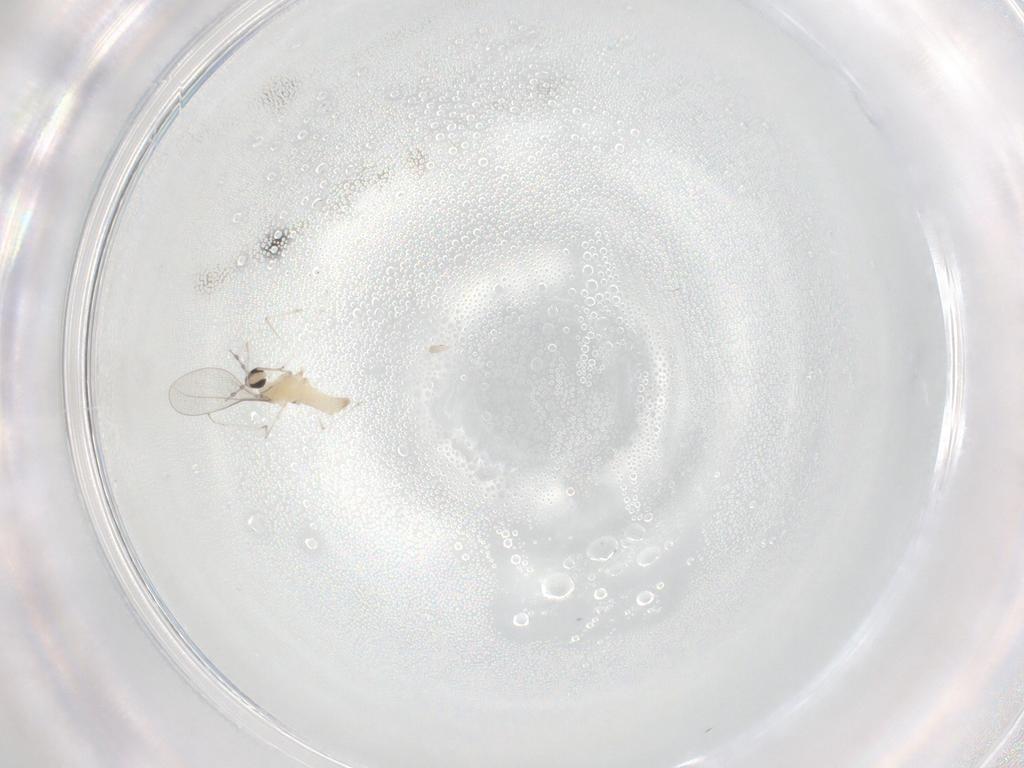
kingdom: Animalia
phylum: Arthropoda
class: Insecta
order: Diptera
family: Cecidomyiidae
